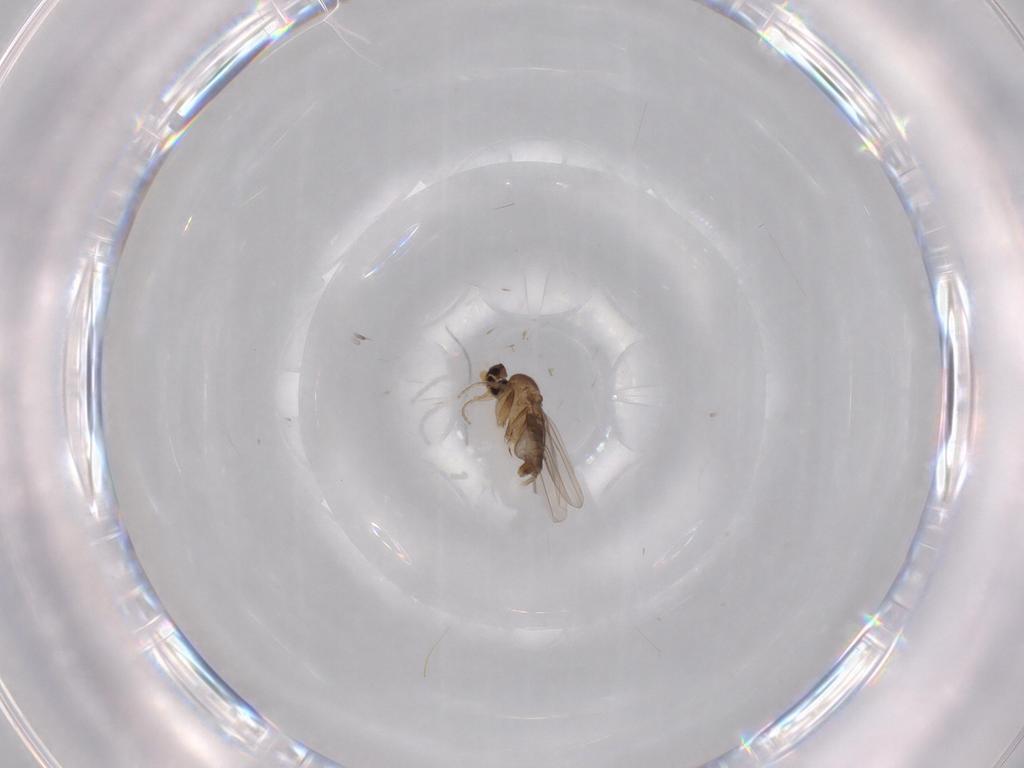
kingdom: Animalia
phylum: Arthropoda
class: Insecta
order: Diptera
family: Phoridae
